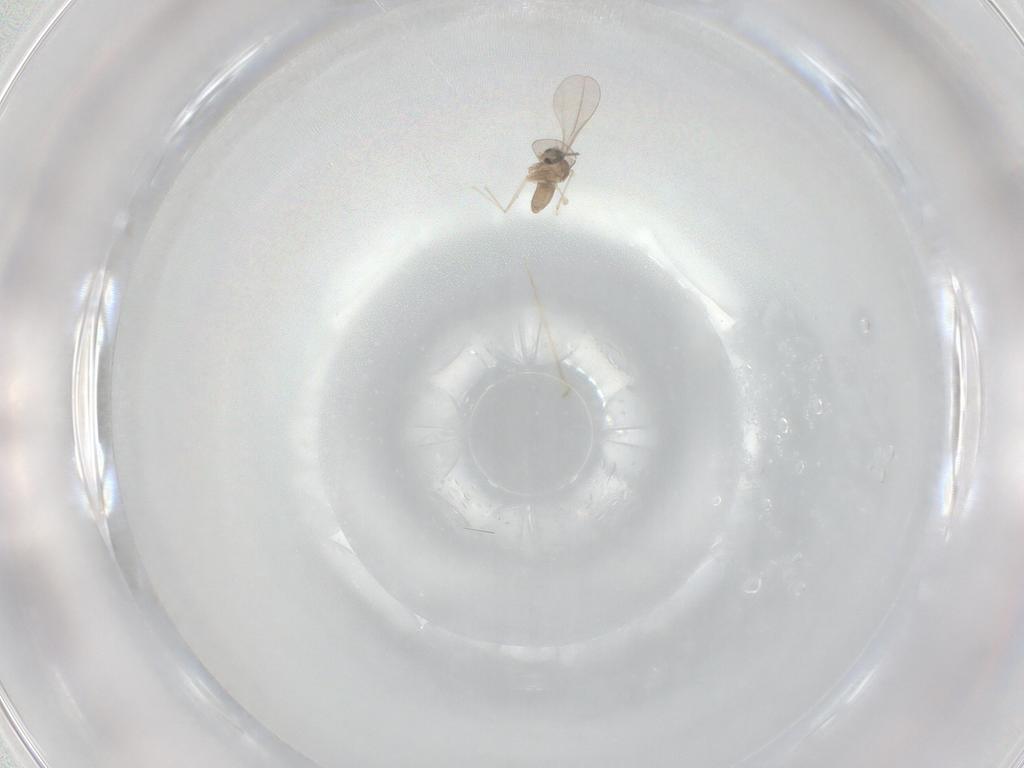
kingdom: Animalia
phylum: Arthropoda
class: Insecta
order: Diptera
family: Cecidomyiidae
